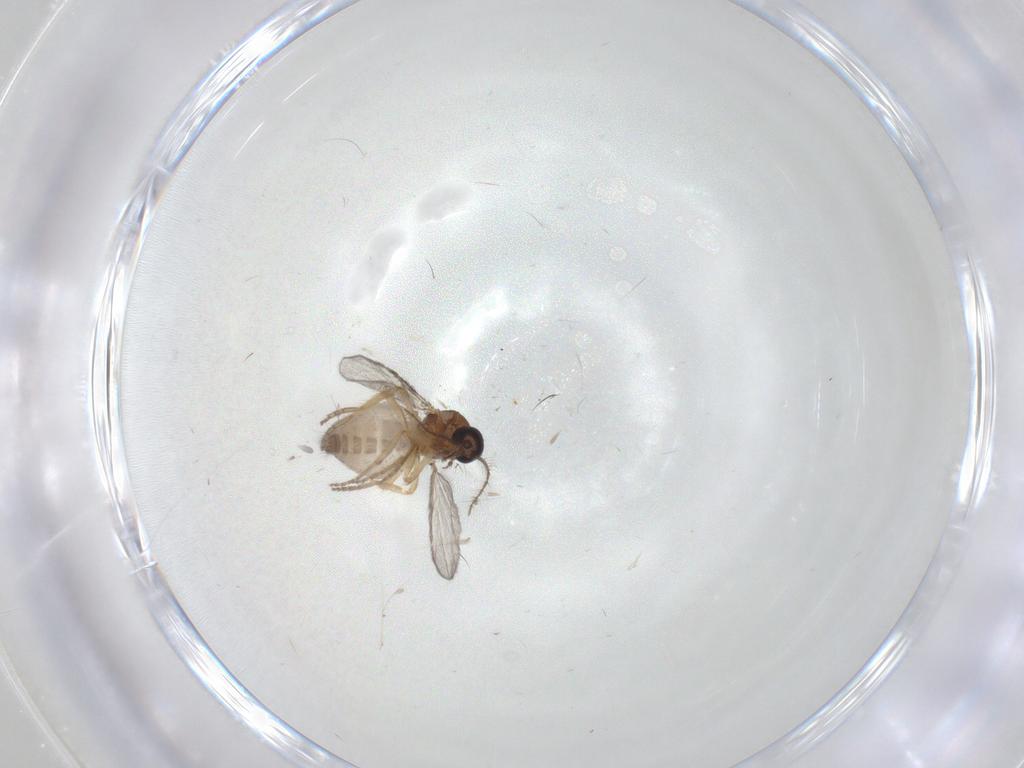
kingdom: Animalia
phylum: Arthropoda
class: Insecta
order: Diptera
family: Ceratopogonidae
